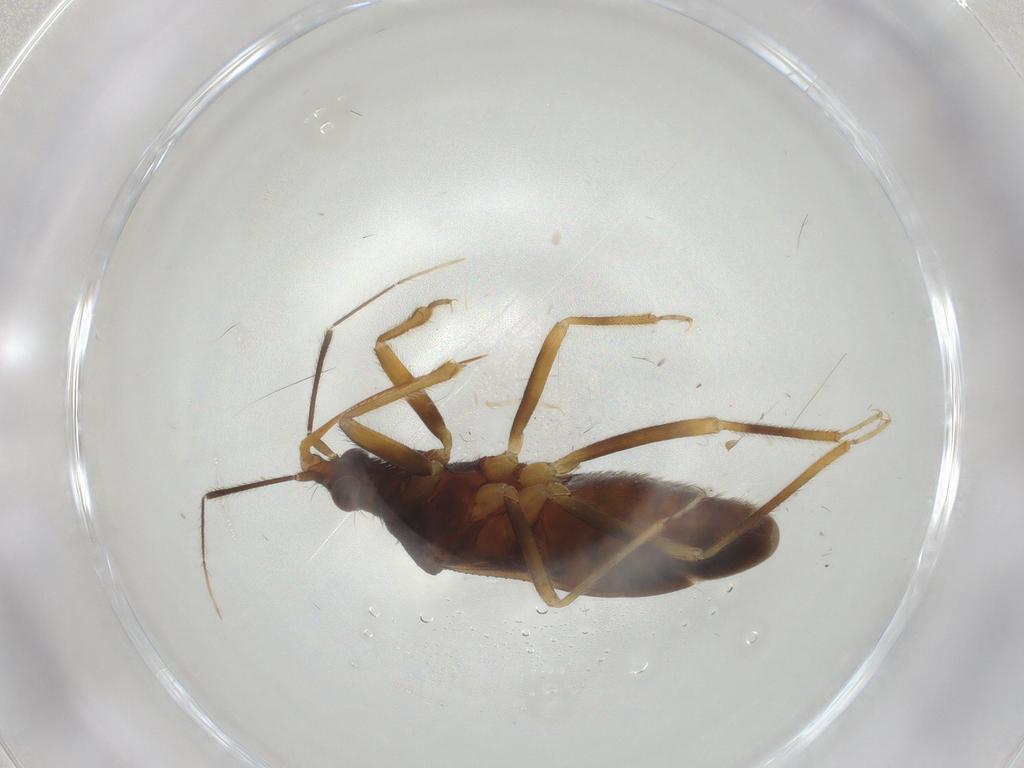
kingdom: Animalia
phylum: Arthropoda
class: Insecta
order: Hemiptera
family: Anthocoridae
